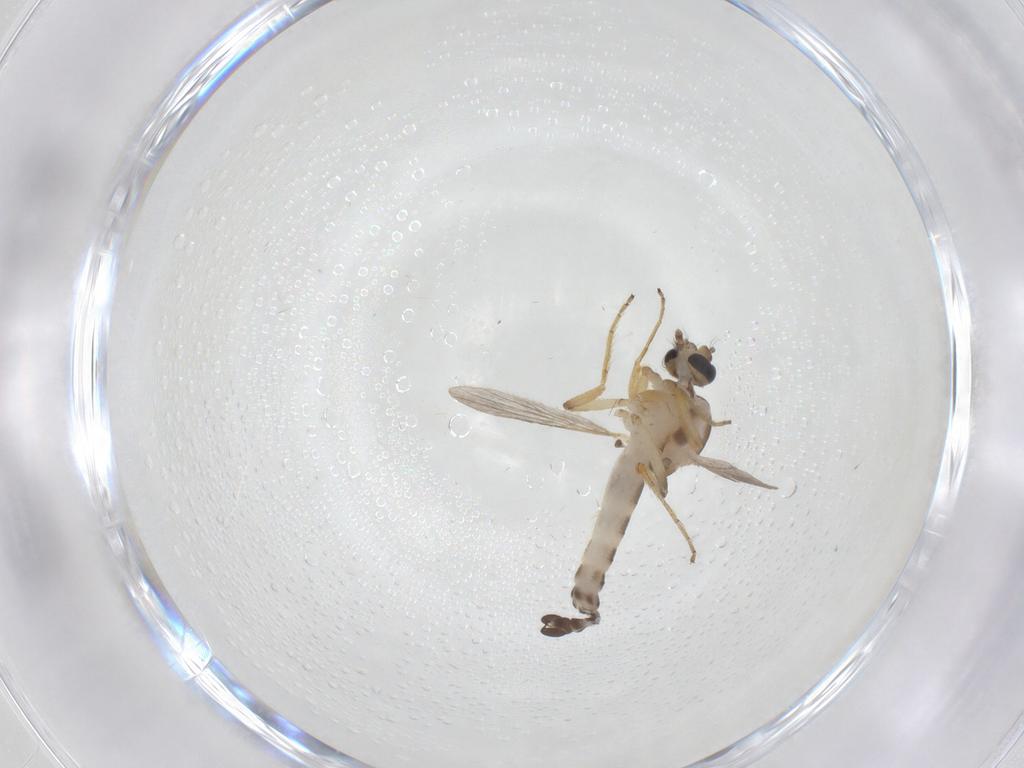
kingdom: Animalia
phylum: Arthropoda
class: Insecta
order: Diptera
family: Ceratopogonidae
